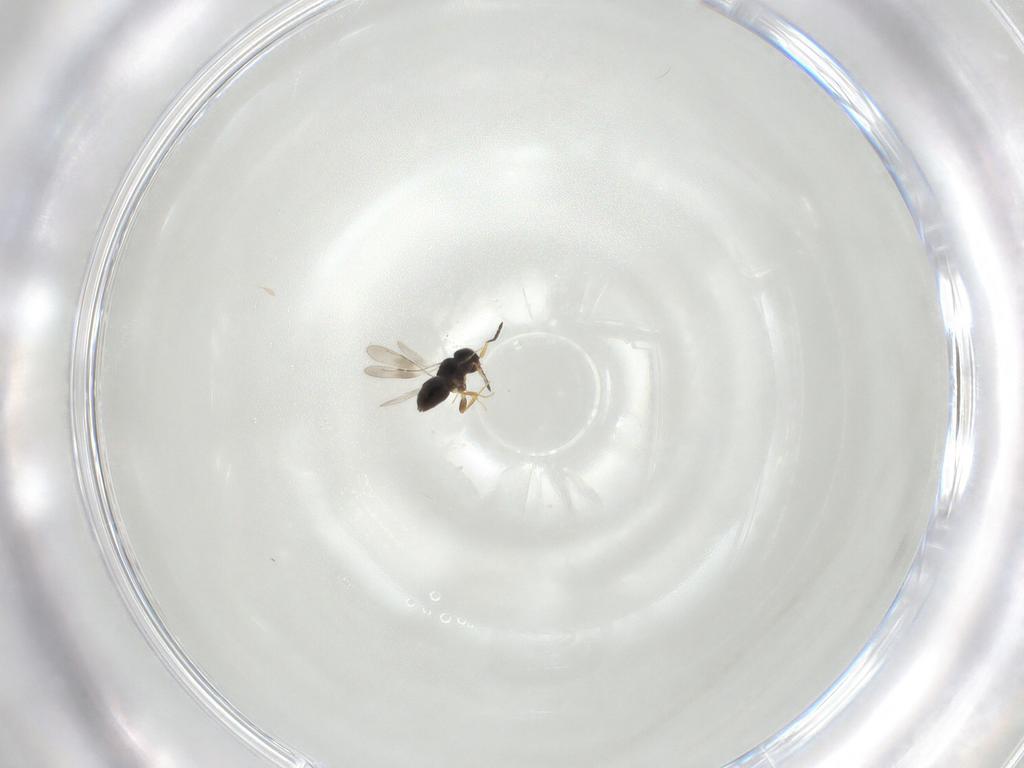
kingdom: Animalia
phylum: Arthropoda
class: Insecta
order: Hymenoptera
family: Ceraphronidae
